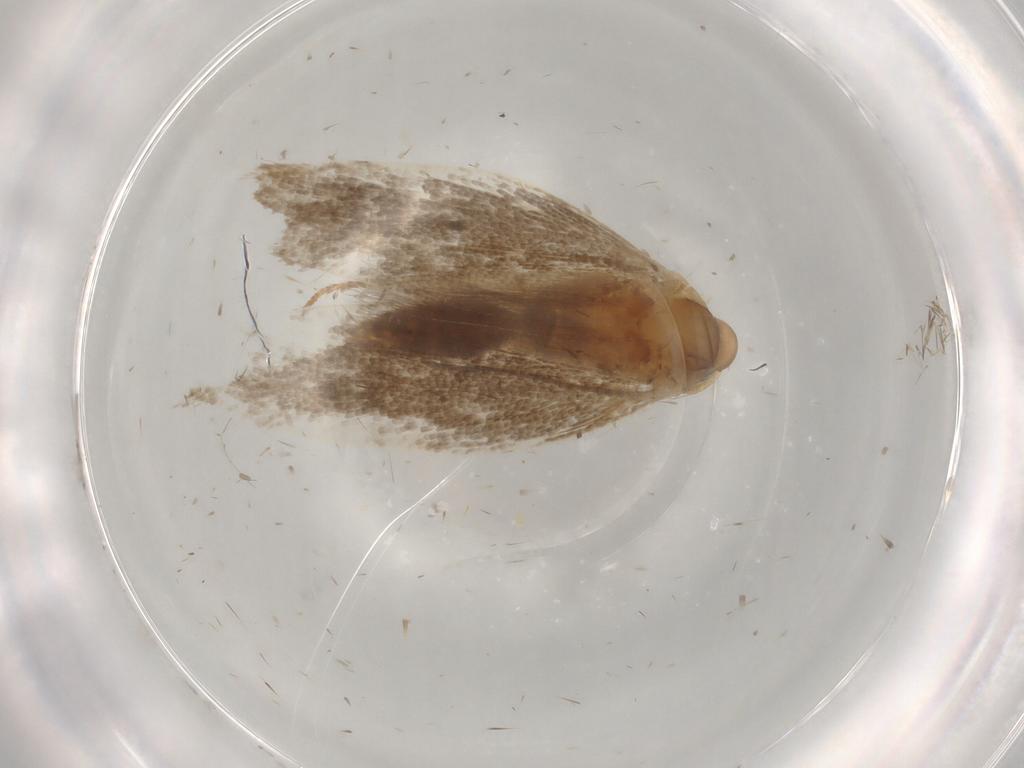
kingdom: Animalia
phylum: Arthropoda
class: Insecta
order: Lepidoptera
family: Plutellidae
